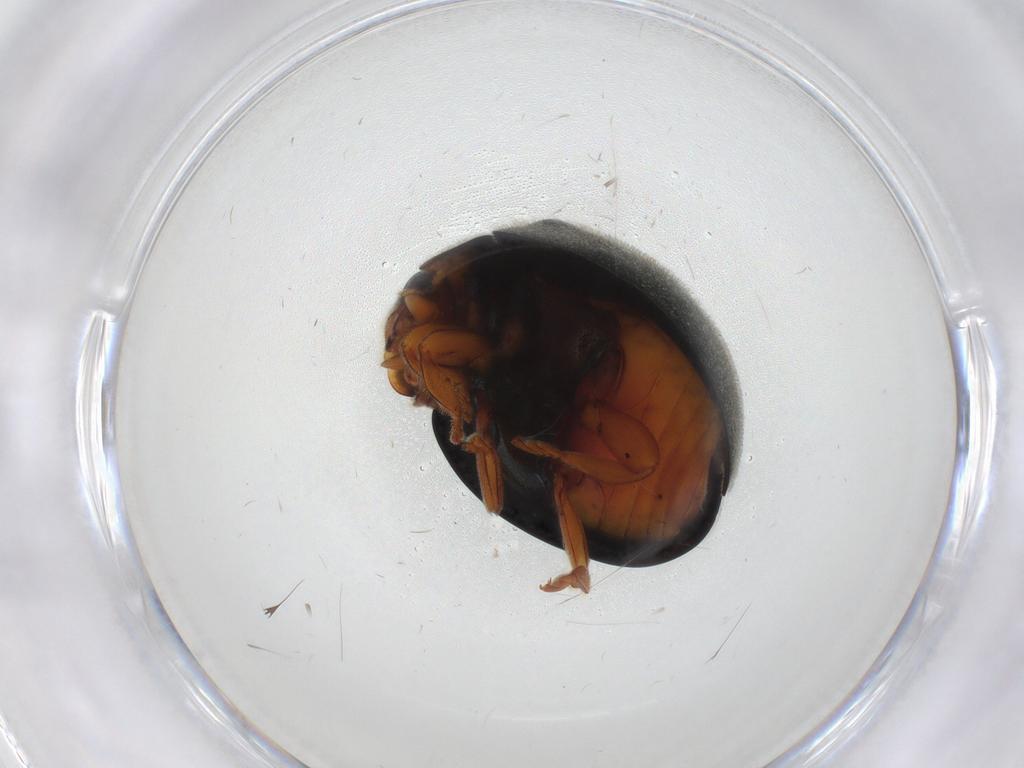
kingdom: Animalia
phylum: Arthropoda
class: Insecta
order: Coleoptera
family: Coccinellidae
